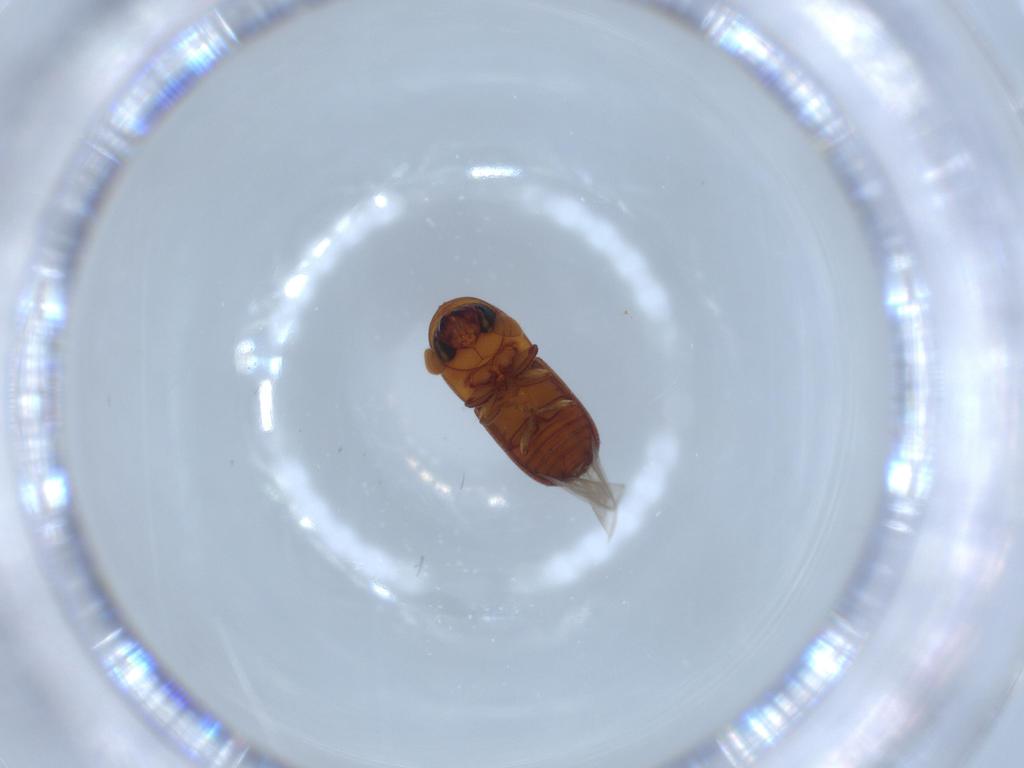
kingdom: Animalia
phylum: Arthropoda
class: Insecta
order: Coleoptera
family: Curculionidae
